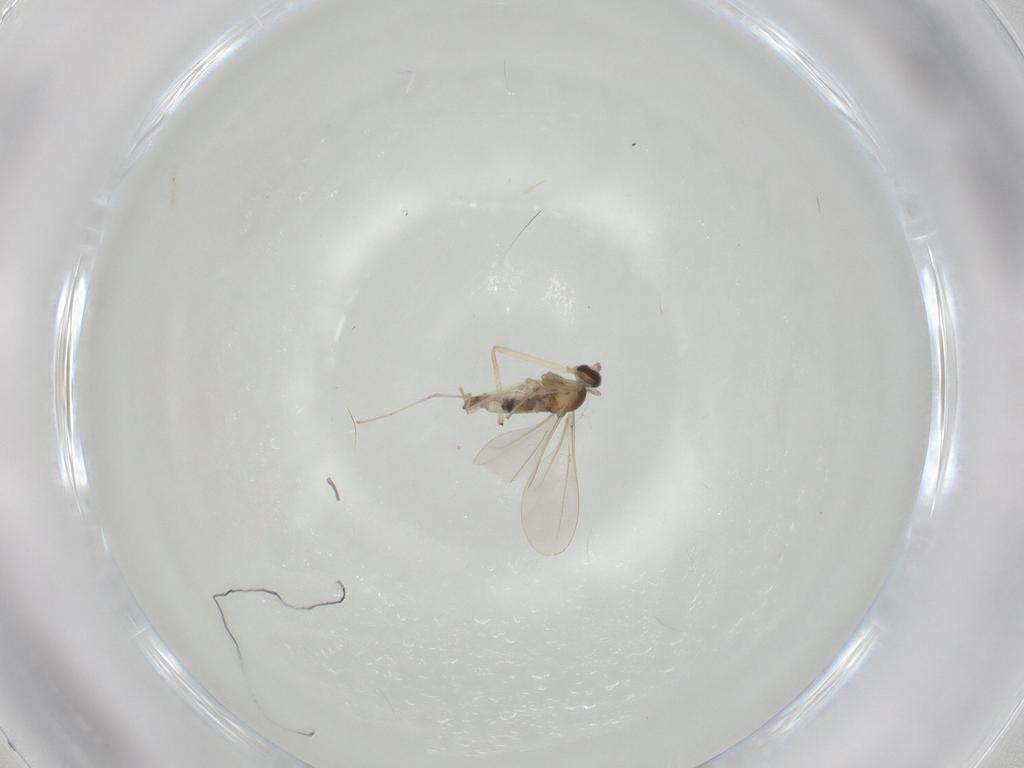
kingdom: Animalia
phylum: Arthropoda
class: Insecta
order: Diptera
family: Cecidomyiidae
